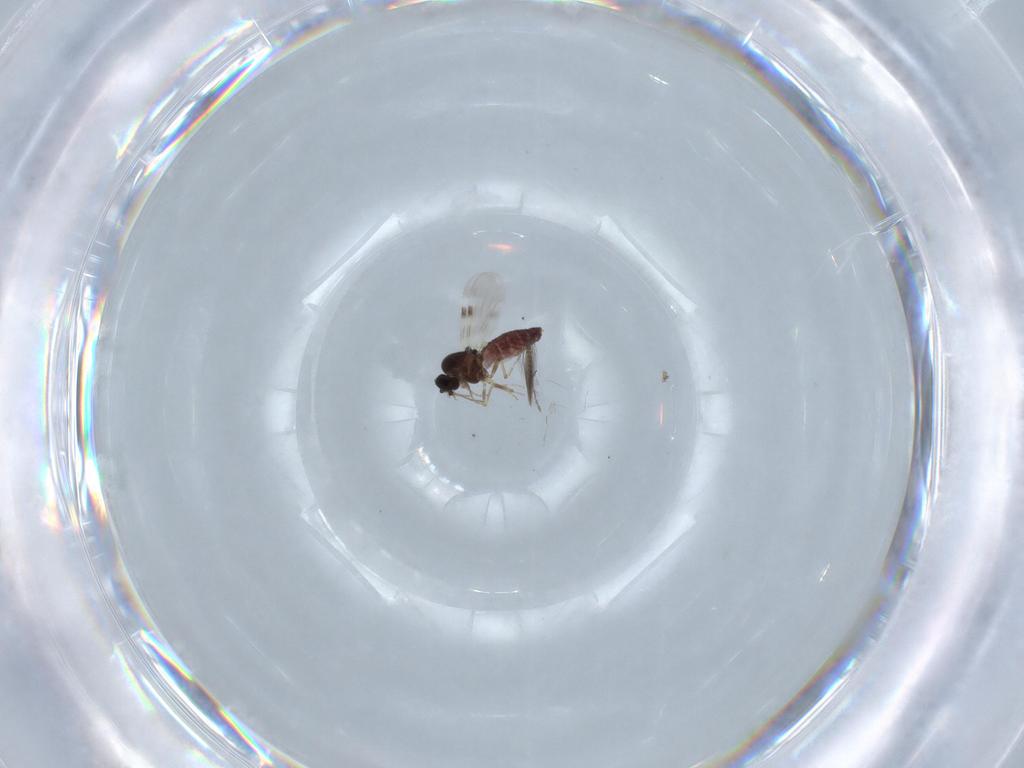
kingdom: Animalia
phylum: Arthropoda
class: Insecta
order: Diptera
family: Ceratopogonidae
